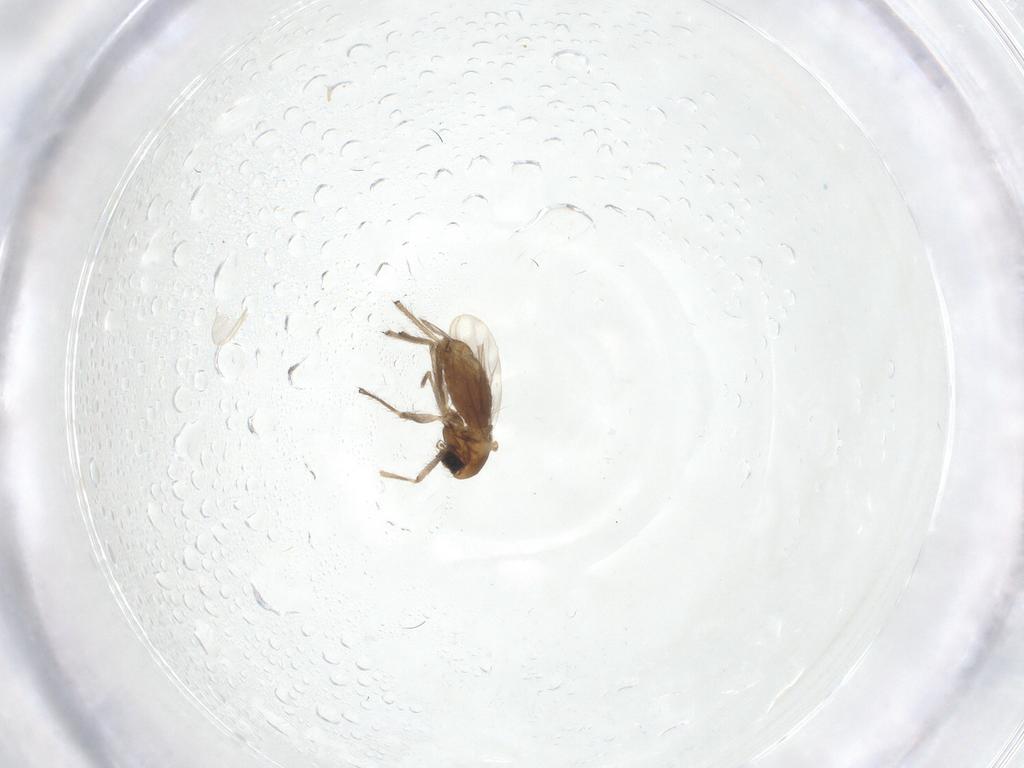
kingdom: Animalia
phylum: Arthropoda
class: Insecta
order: Diptera
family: Chironomidae
